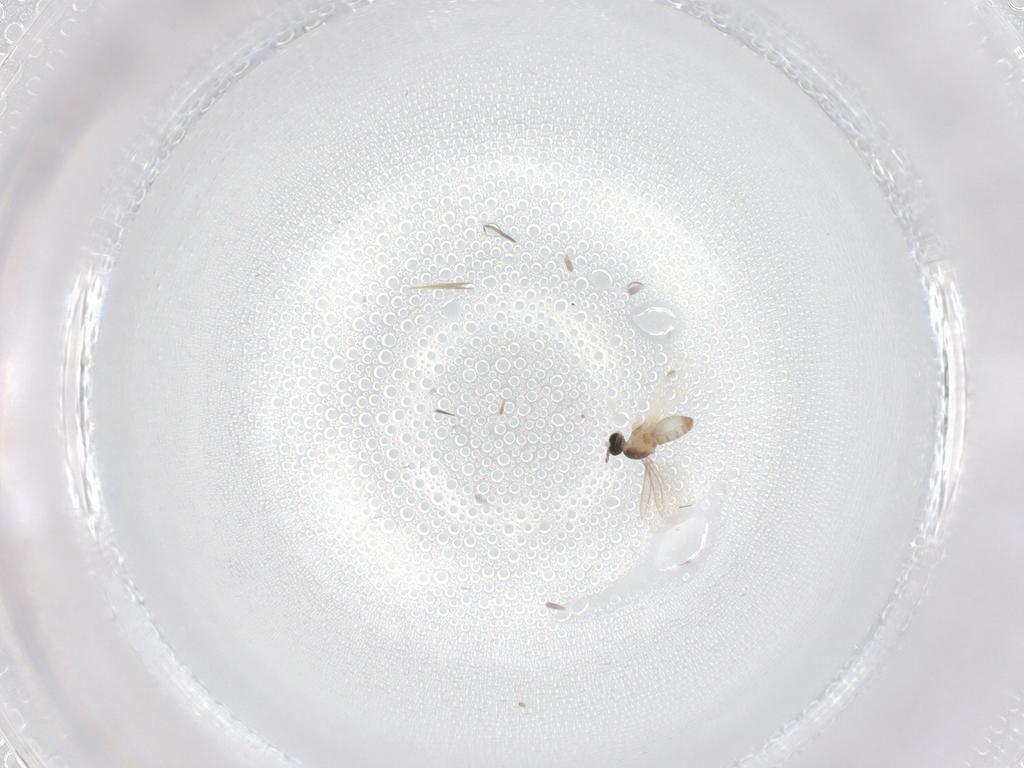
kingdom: Animalia
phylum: Arthropoda
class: Insecta
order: Diptera
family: Cecidomyiidae
